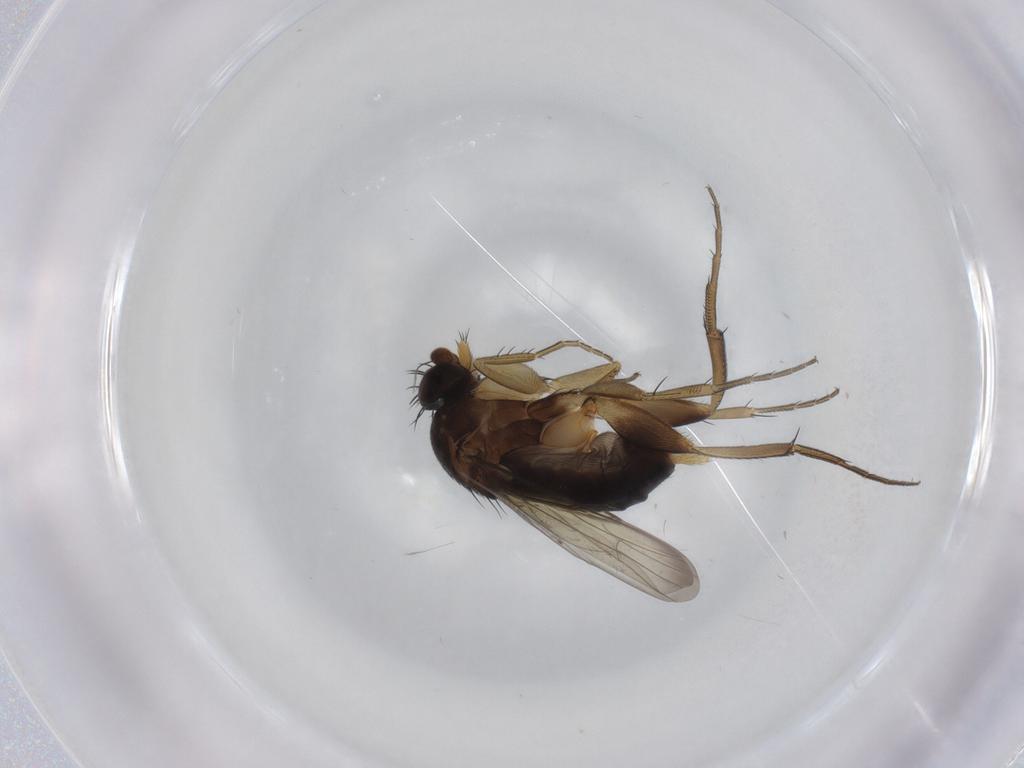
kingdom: Animalia
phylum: Arthropoda
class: Insecta
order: Diptera
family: Phoridae
